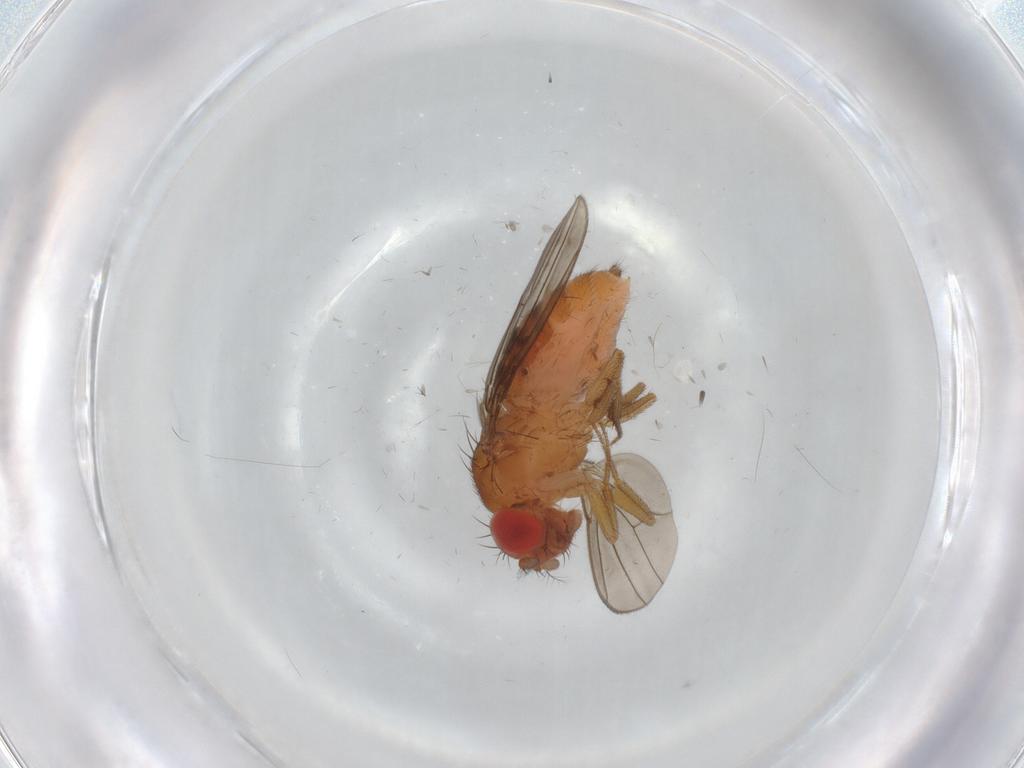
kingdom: Animalia
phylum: Arthropoda
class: Insecta
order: Diptera
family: Drosophilidae
